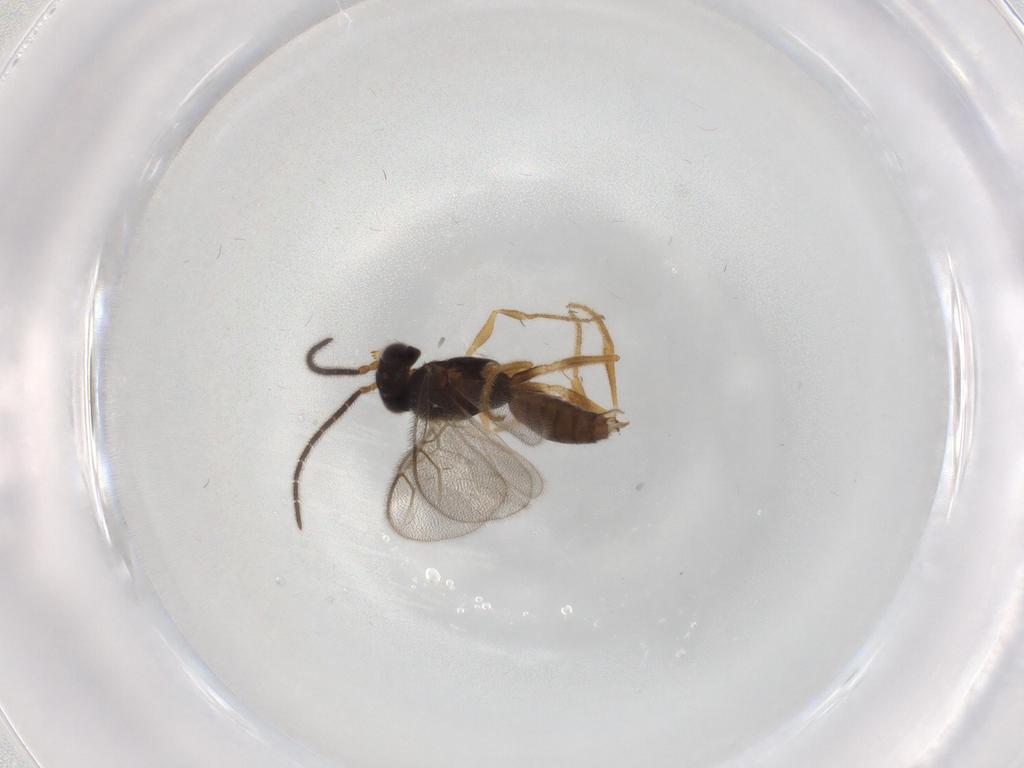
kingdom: Animalia
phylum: Arthropoda
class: Insecta
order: Hymenoptera
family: Dryinidae
